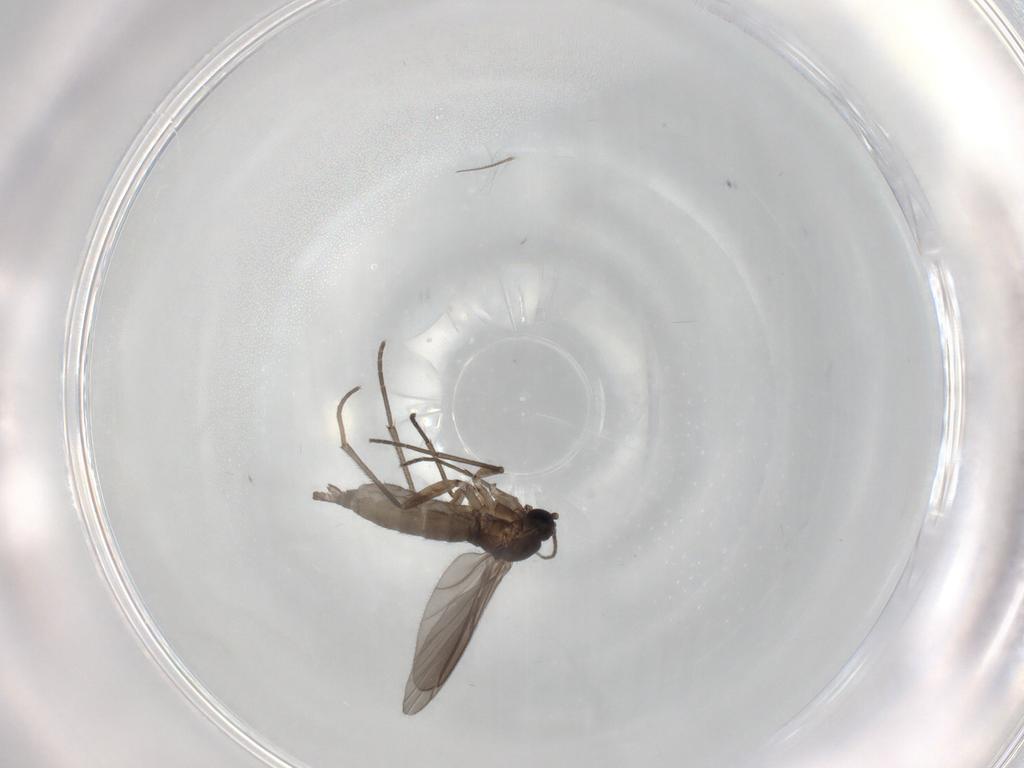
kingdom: Animalia
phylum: Arthropoda
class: Insecta
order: Diptera
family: Sciaridae
